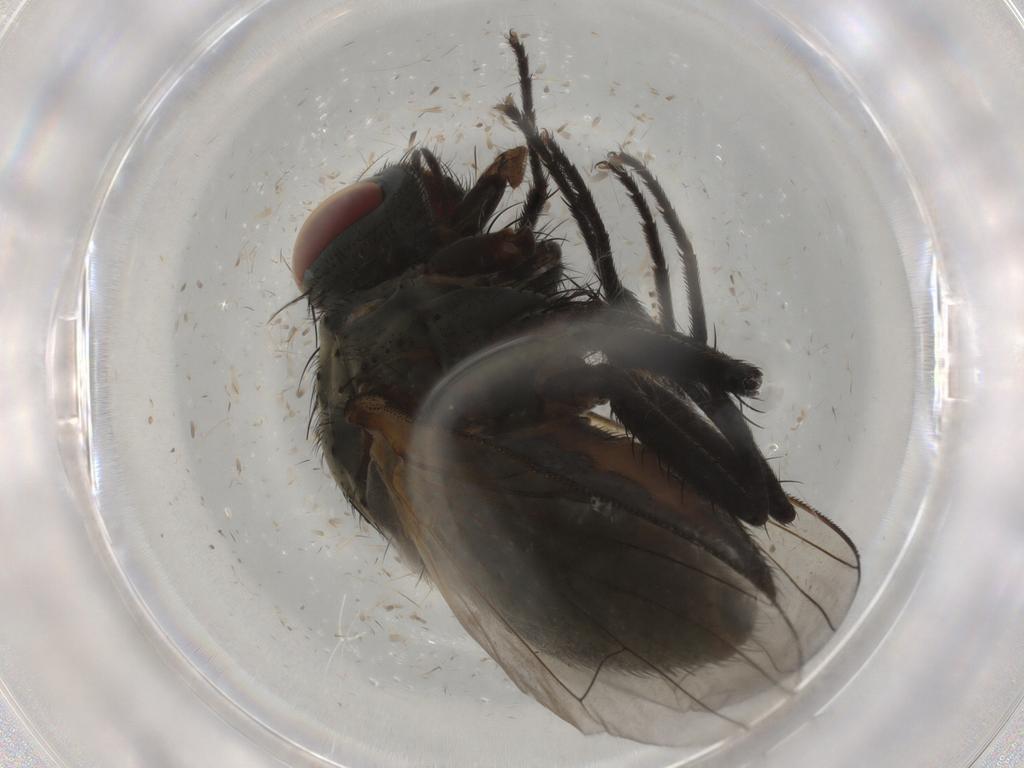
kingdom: Animalia
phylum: Arthropoda
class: Insecta
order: Diptera
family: Muscidae
